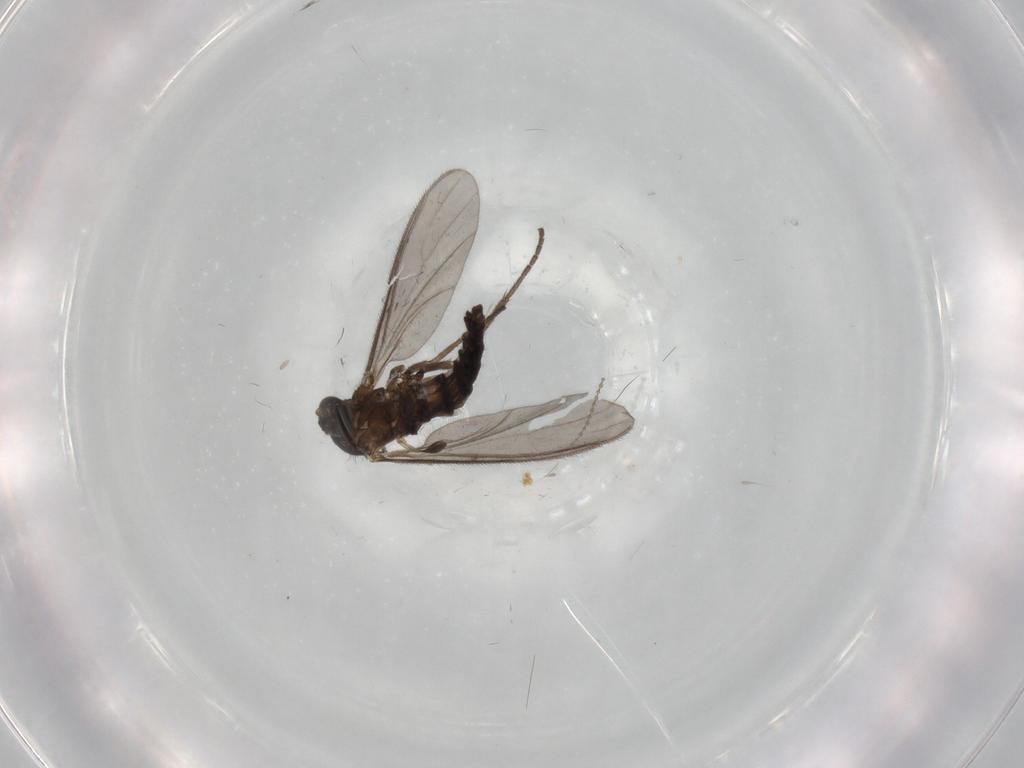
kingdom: Animalia
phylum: Arthropoda
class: Insecta
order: Diptera
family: Sciaridae
